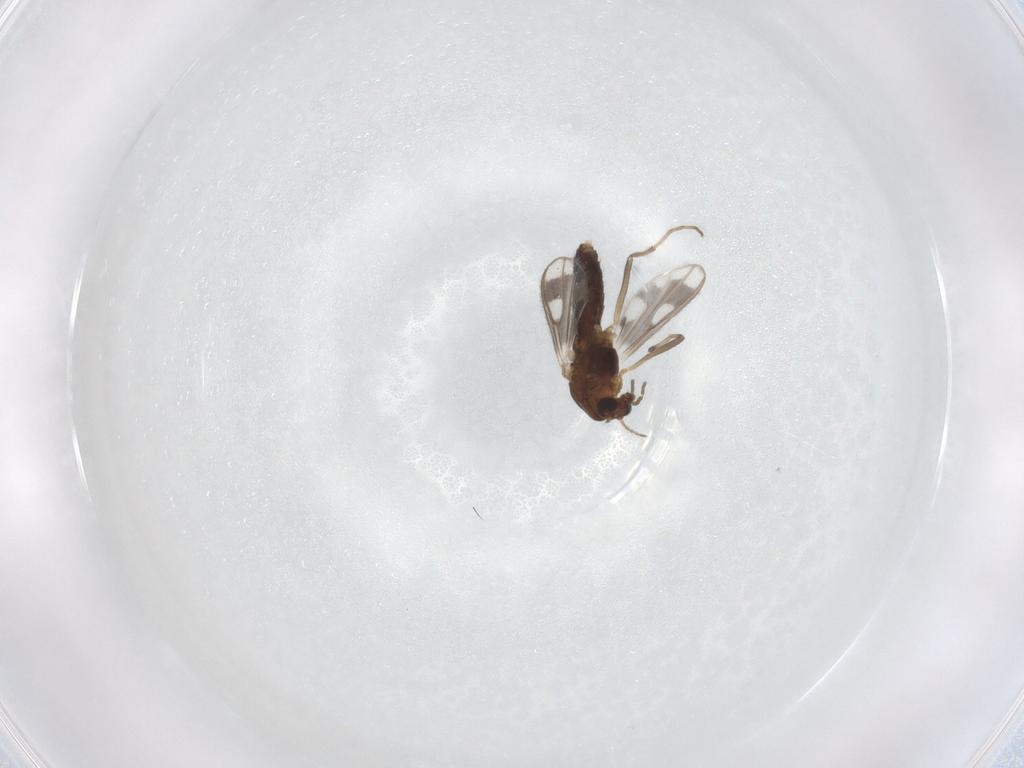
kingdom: Animalia
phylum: Arthropoda
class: Insecta
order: Diptera
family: Chironomidae
